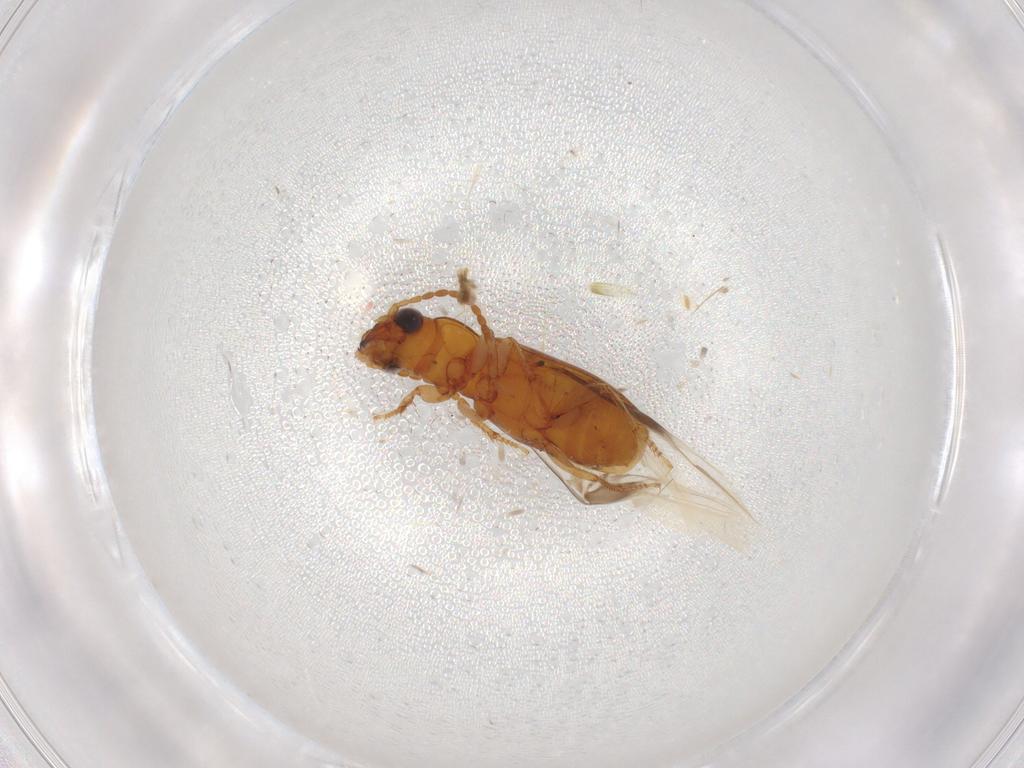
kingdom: Animalia
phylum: Arthropoda
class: Insecta
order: Coleoptera
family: Carabidae
